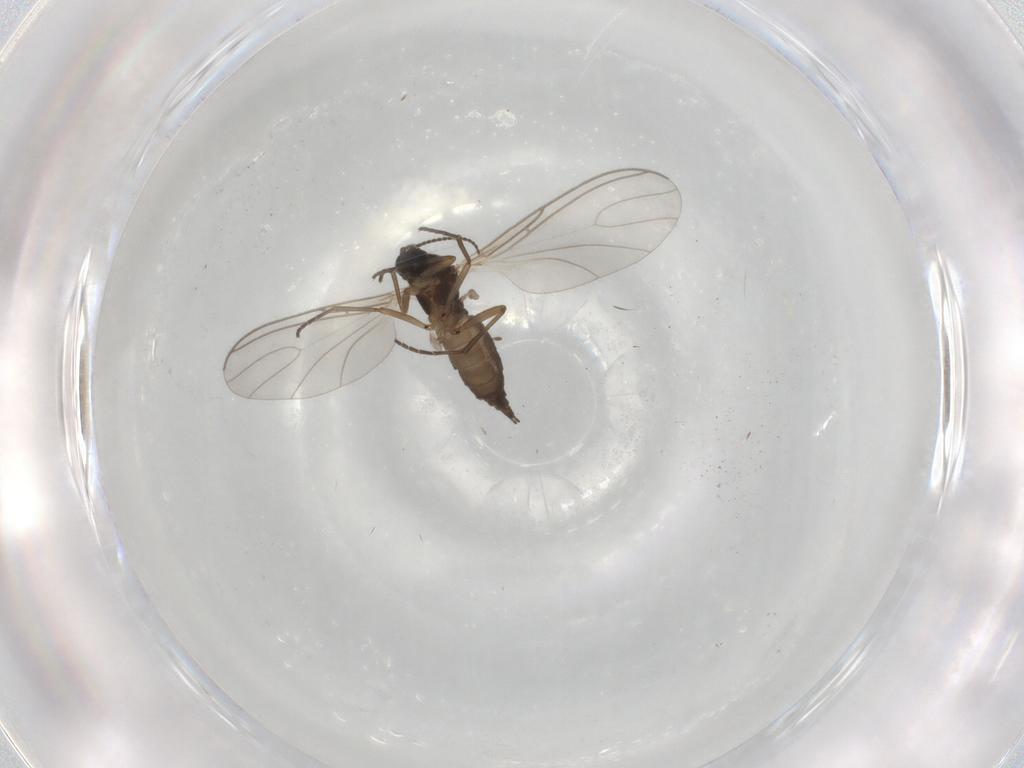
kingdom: Animalia
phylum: Arthropoda
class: Insecta
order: Diptera
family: Sciaridae
